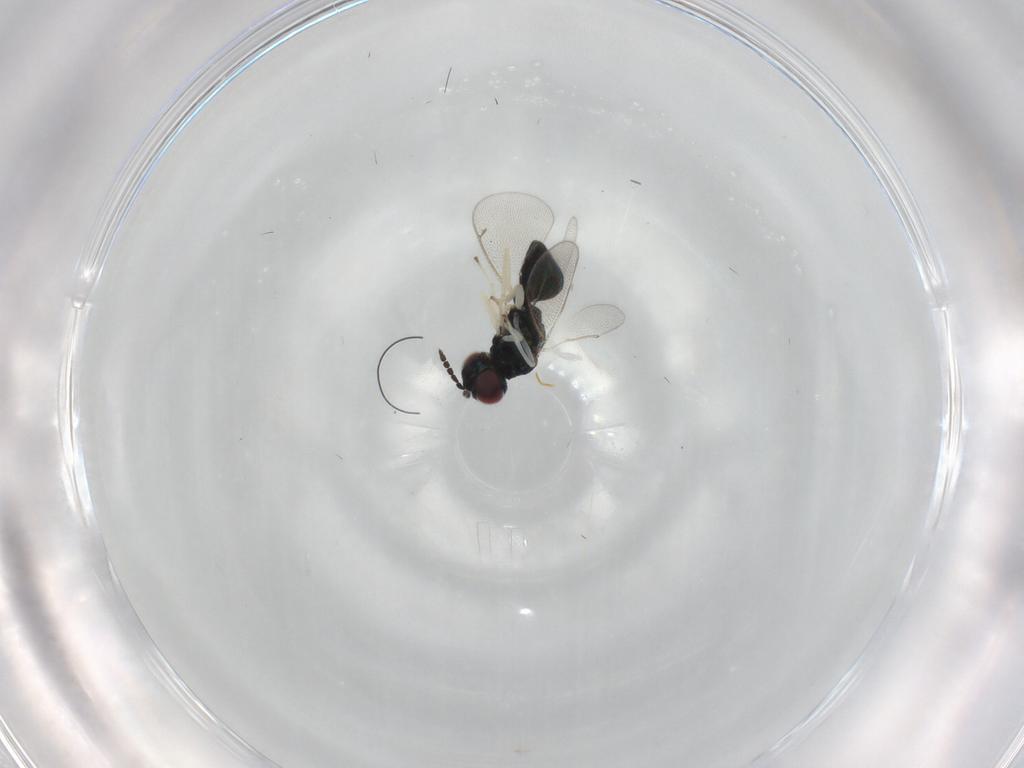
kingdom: Animalia
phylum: Arthropoda
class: Insecta
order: Hymenoptera
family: Eulophidae
